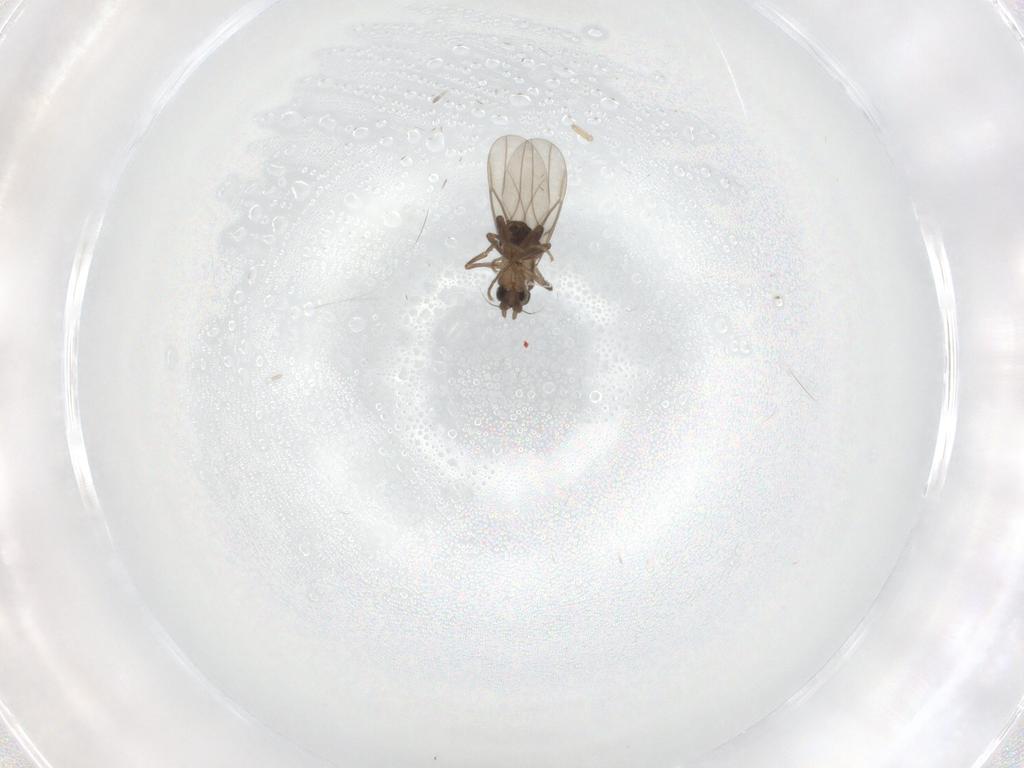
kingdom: Animalia
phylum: Arthropoda
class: Insecta
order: Diptera
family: Cecidomyiidae
